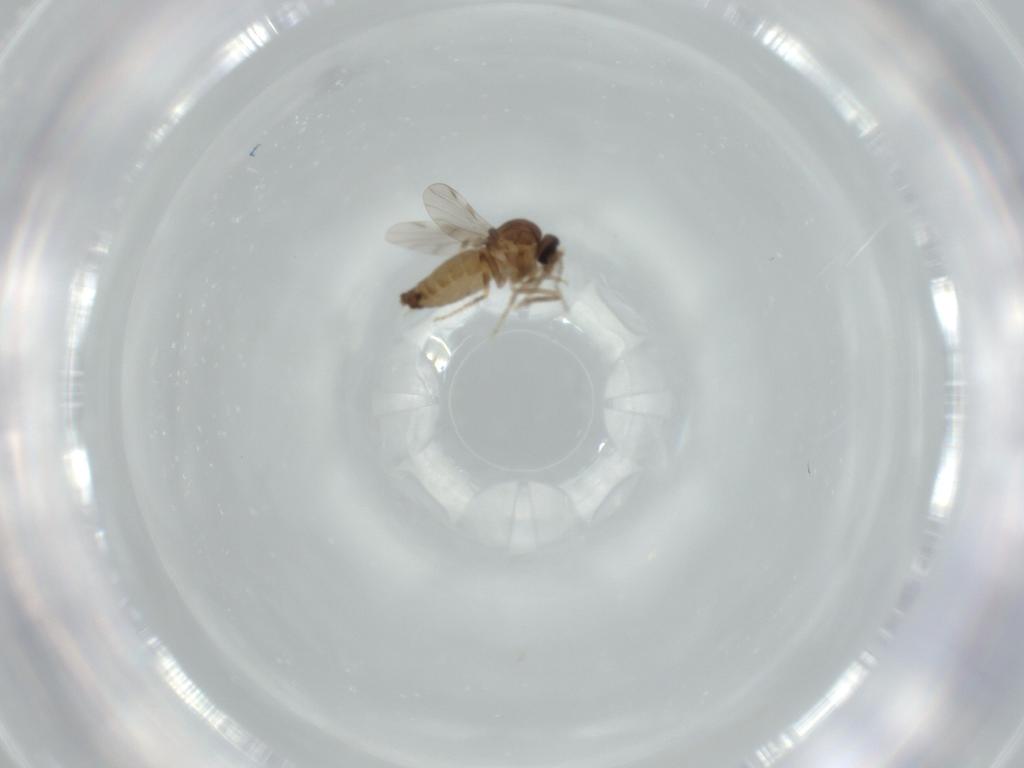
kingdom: Animalia
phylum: Arthropoda
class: Insecta
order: Diptera
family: Ceratopogonidae
